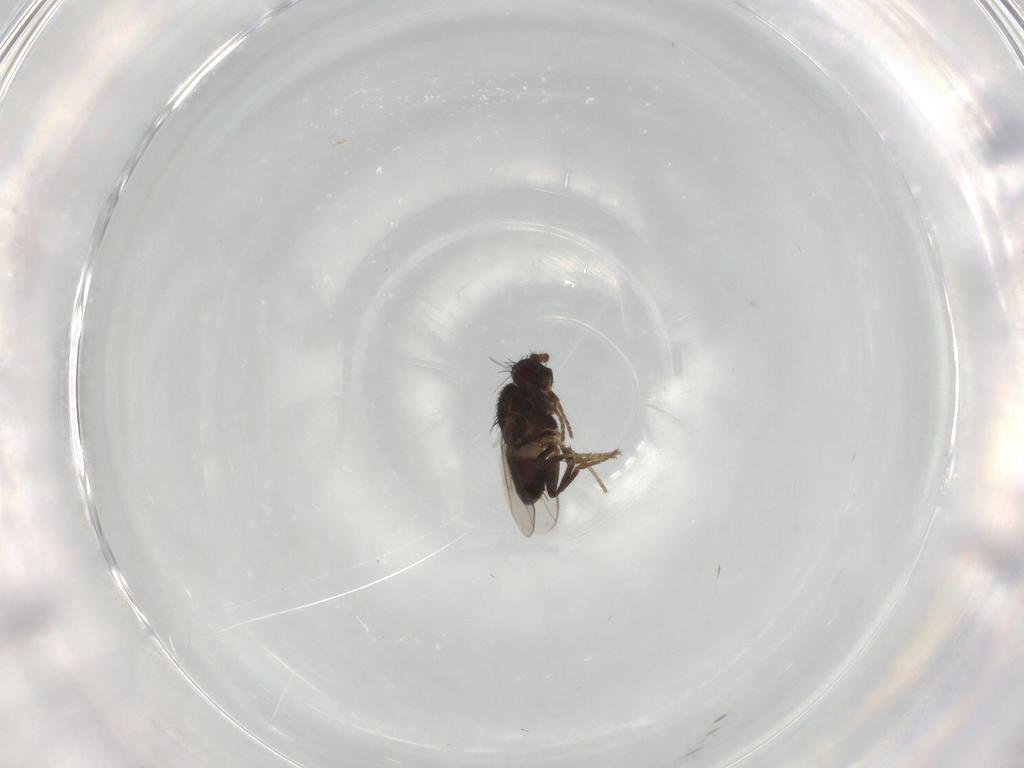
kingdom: Animalia
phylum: Arthropoda
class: Insecta
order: Diptera
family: Sphaeroceridae
